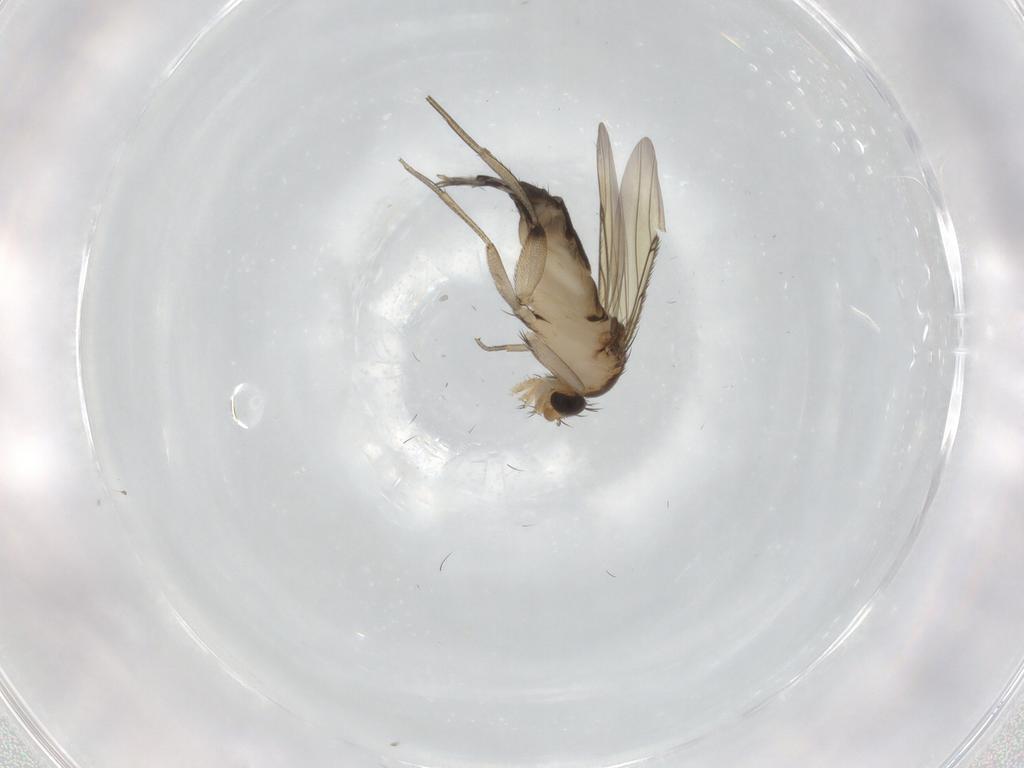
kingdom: Animalia
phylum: Arthropoda
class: Insecta
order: Diptera
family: Phoridae
